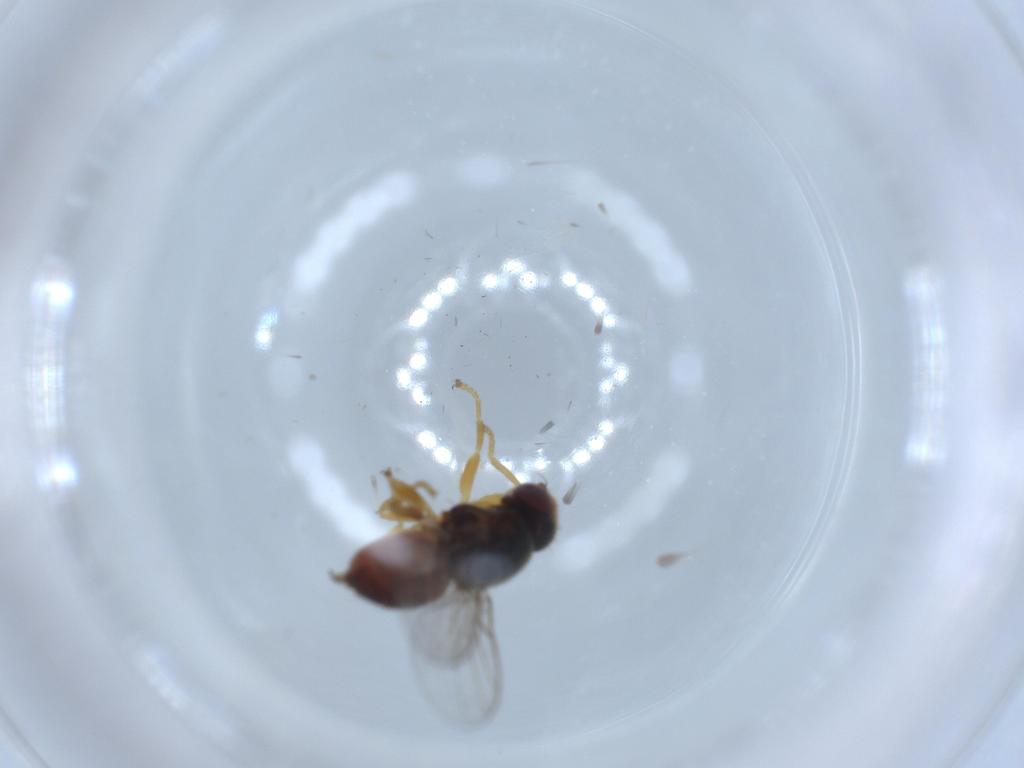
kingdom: Animalia
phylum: Arthropoda
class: Insecta
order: Diptera
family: Chloropidae
